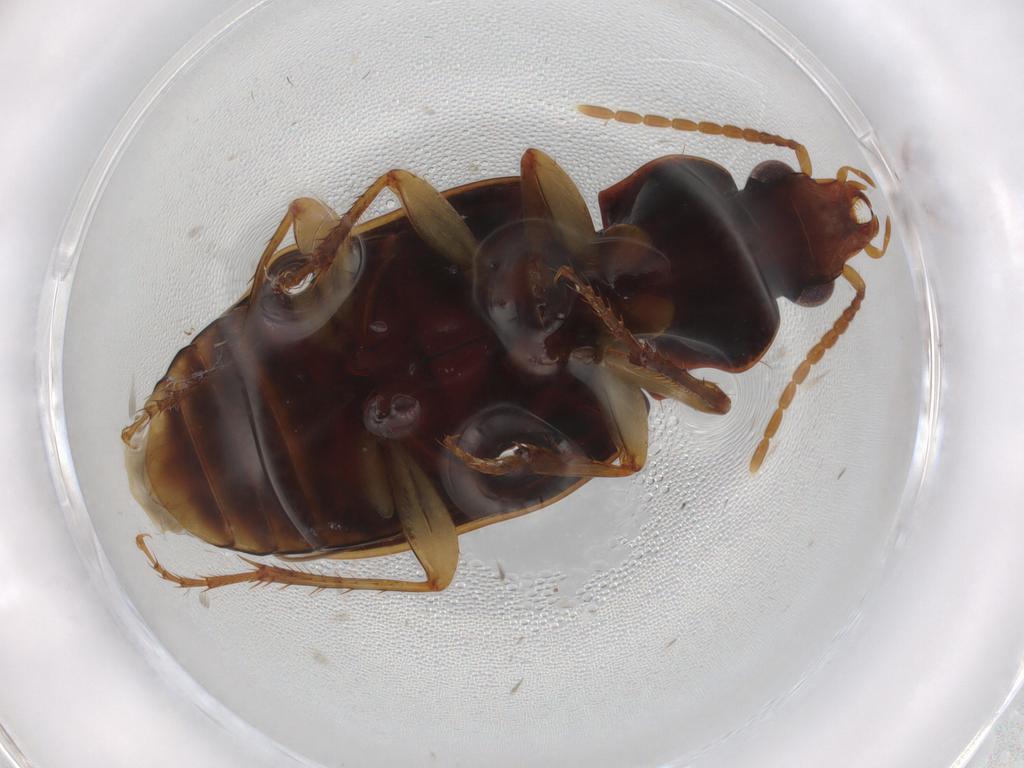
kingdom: Animalia
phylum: Arthropoda
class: Insecta
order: Coleoptera
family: Carabidae
